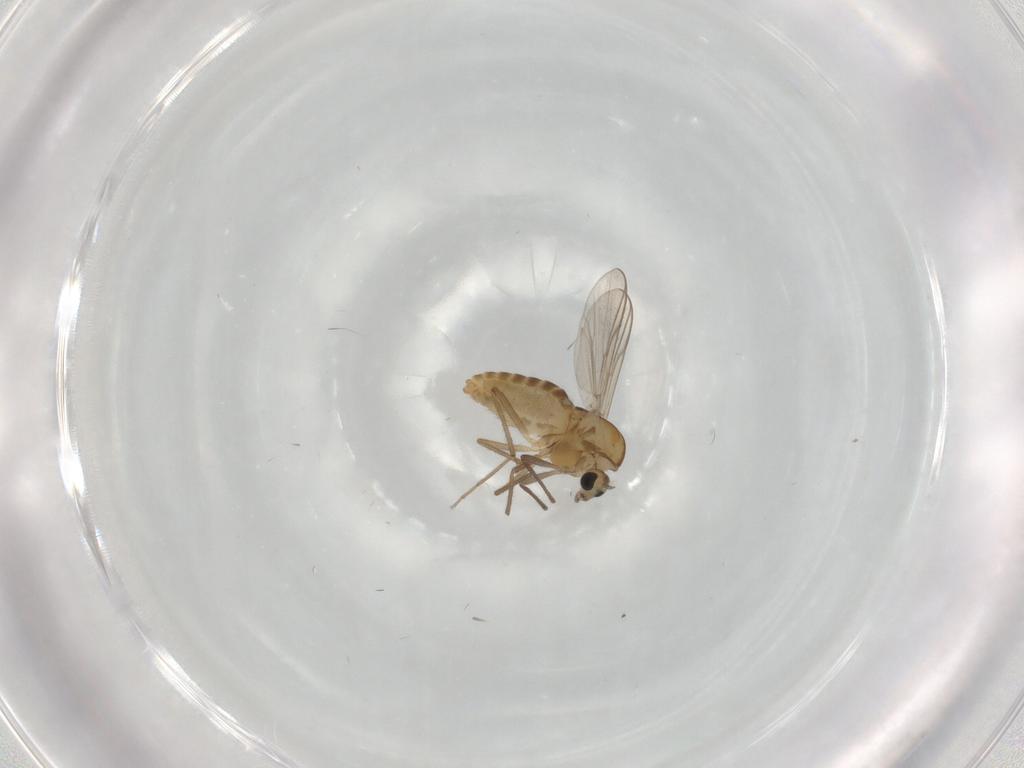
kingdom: Animalia
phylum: Arthropoda
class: Insecta
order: Diptera
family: Chironomidae
